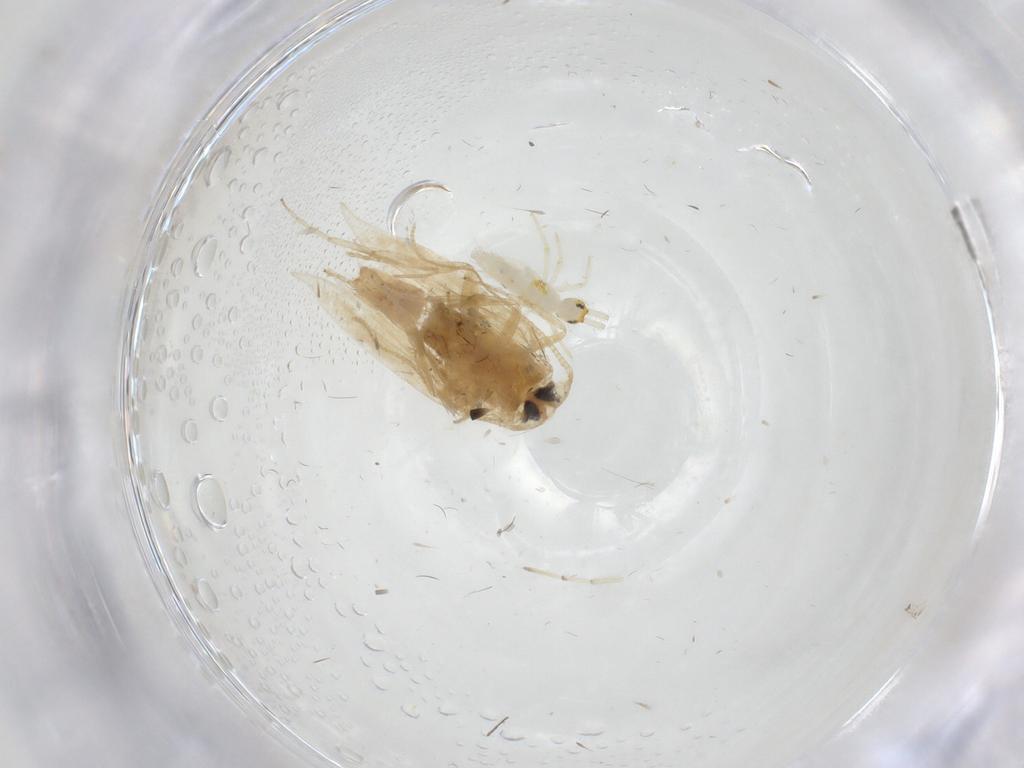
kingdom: Animalia
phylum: Arthropoda
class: Insecta
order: Lepidoptera
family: Opostegidae
